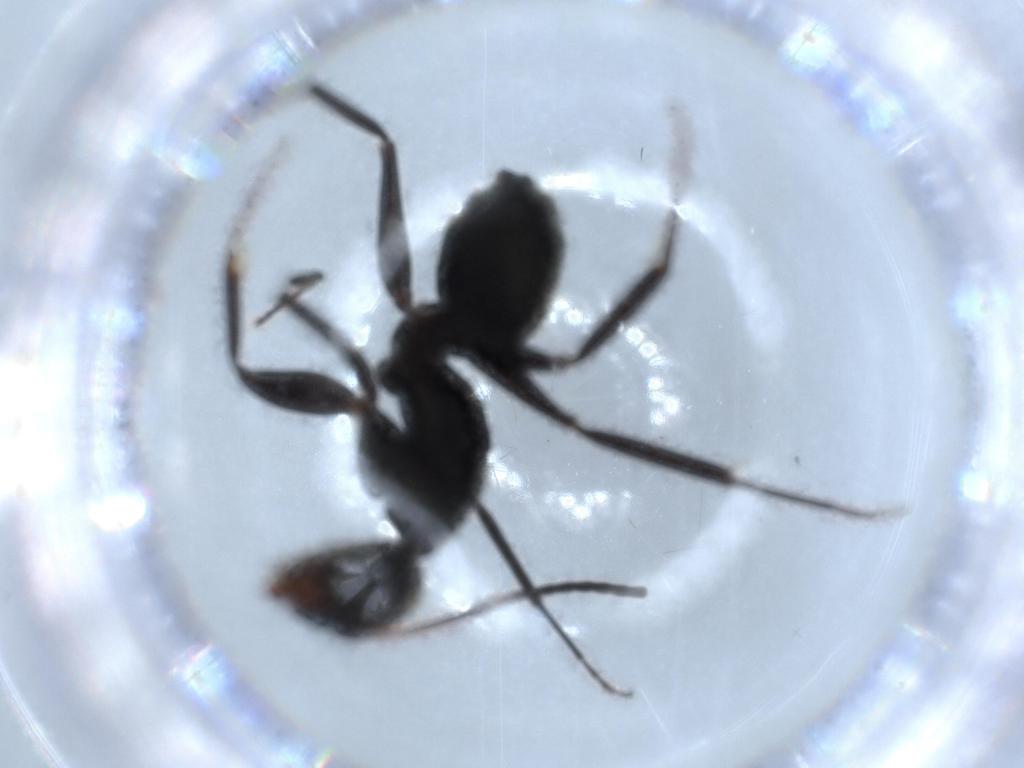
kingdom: Animalia
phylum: Arthropoda
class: Insecta
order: Hymenoptera
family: Formicidae
